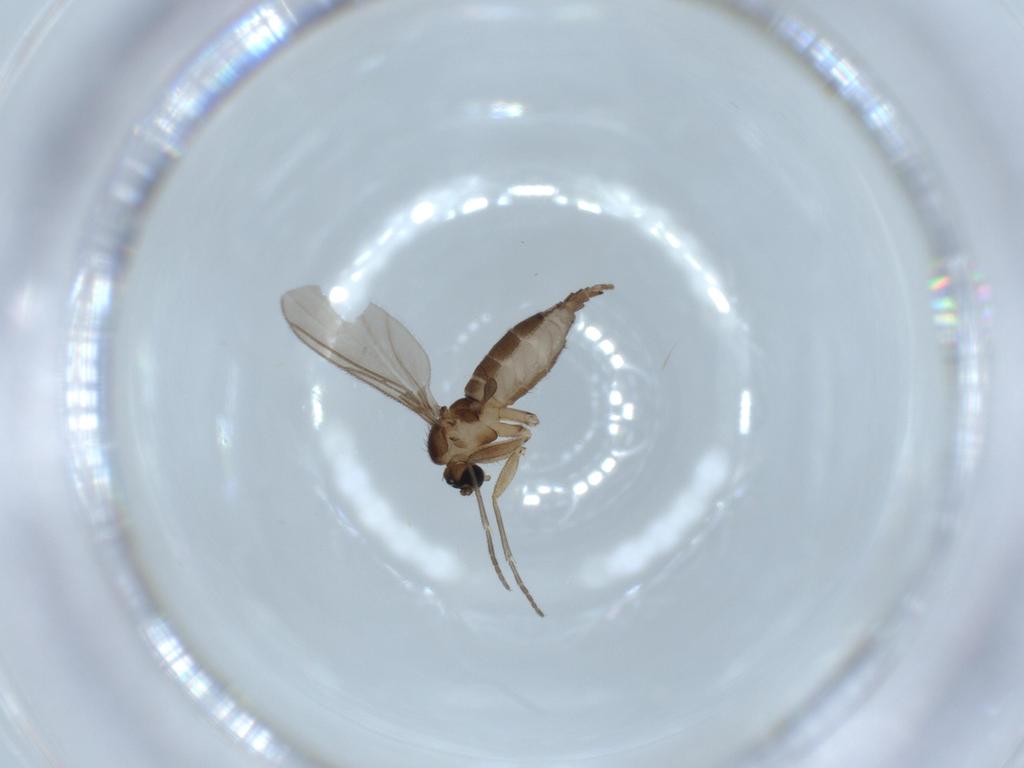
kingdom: Animalia
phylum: Arthropoda
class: Insecta
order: Diptera
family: Sciaridae
